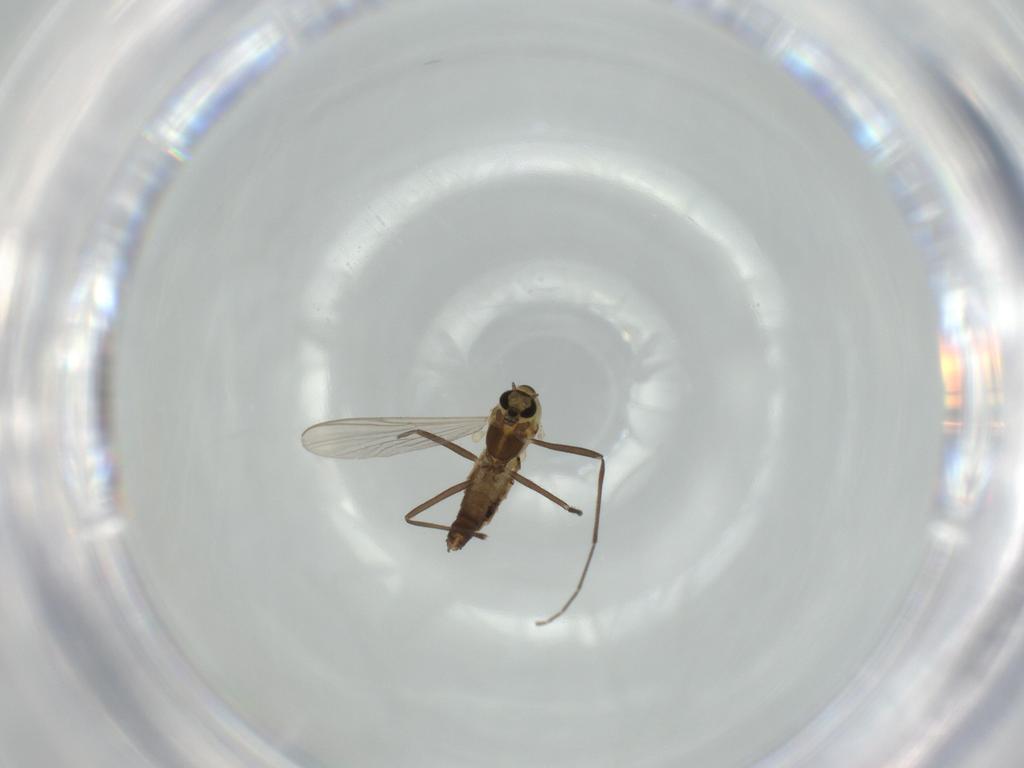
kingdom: Animalia
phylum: Arthropoda
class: Insecta
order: Diptera
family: Chironomidae
